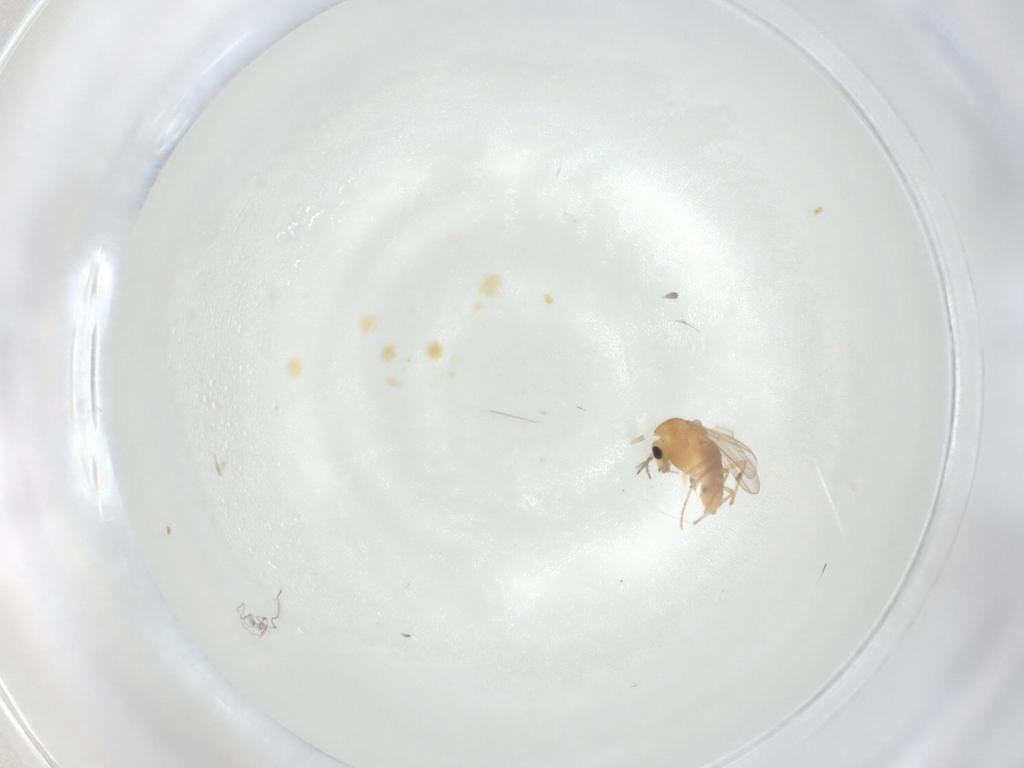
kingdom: Animalia
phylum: Arthropoda
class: Insecta
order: Diptera
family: Chironomidae
